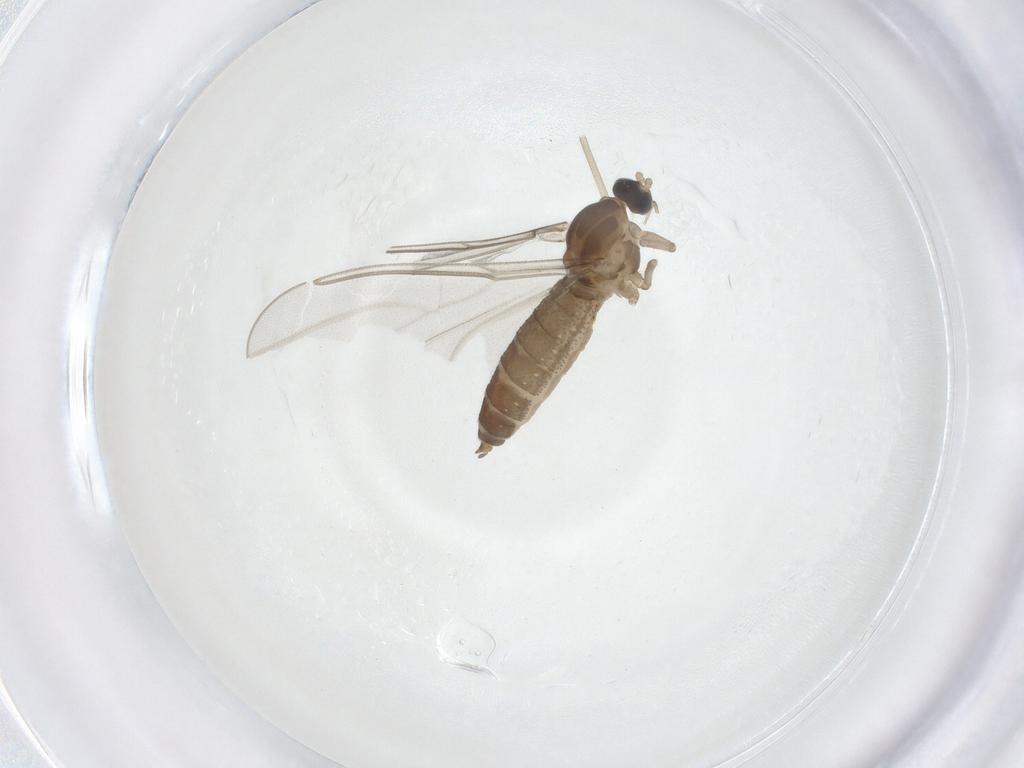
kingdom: Animalia
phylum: Arthropoda
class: Insecta
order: Diptera
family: Cecidomyiidae
